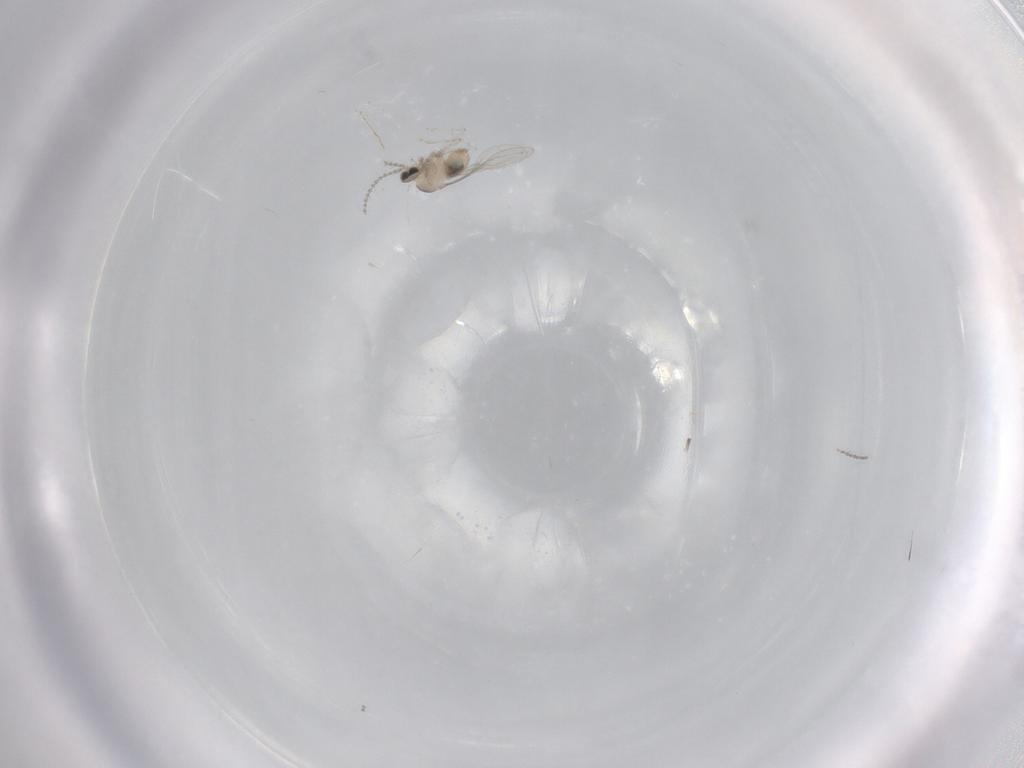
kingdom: Animalia
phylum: Arthropoda
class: Insecta
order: Diptera
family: Cecidomyiidae
